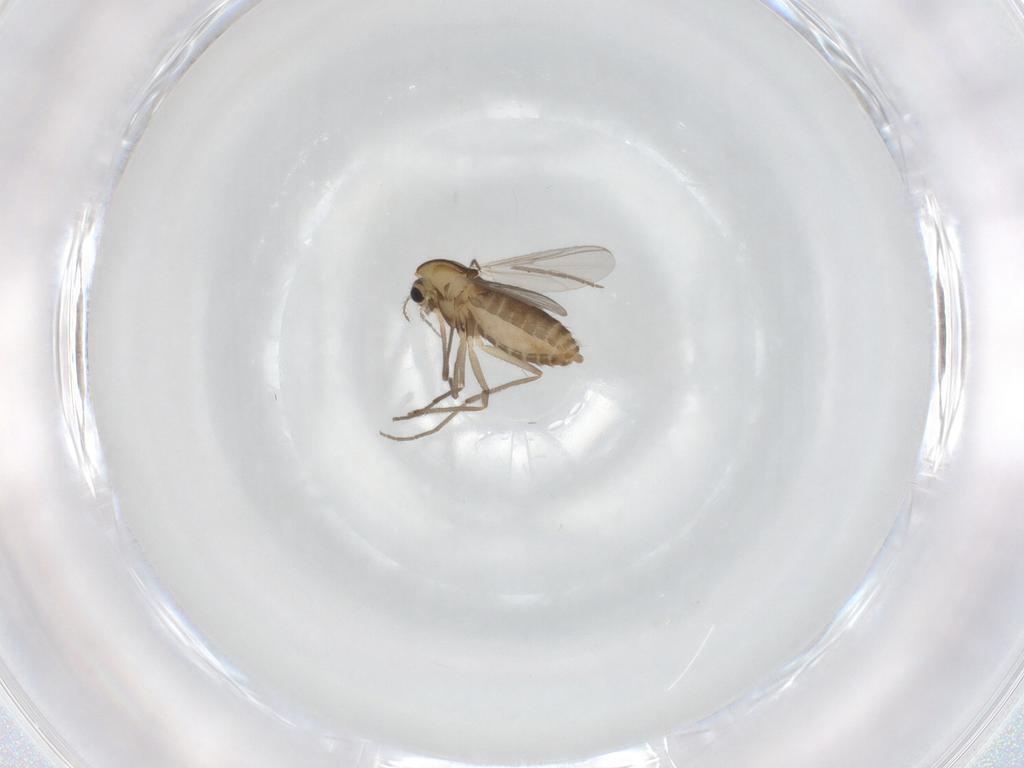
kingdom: Animalia
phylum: Arthropoda
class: Insecta
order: Diptera
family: Chironomidae
